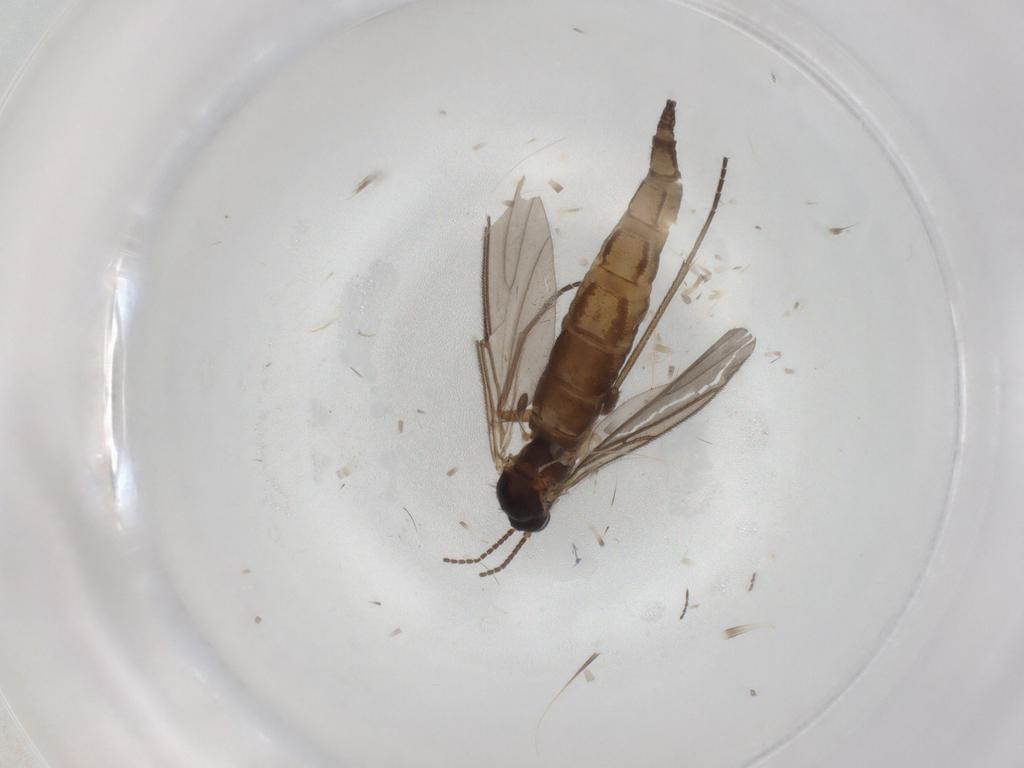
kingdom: Animalia
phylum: Arthropoda
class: Insecta
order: Diptera
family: Sciaridae
